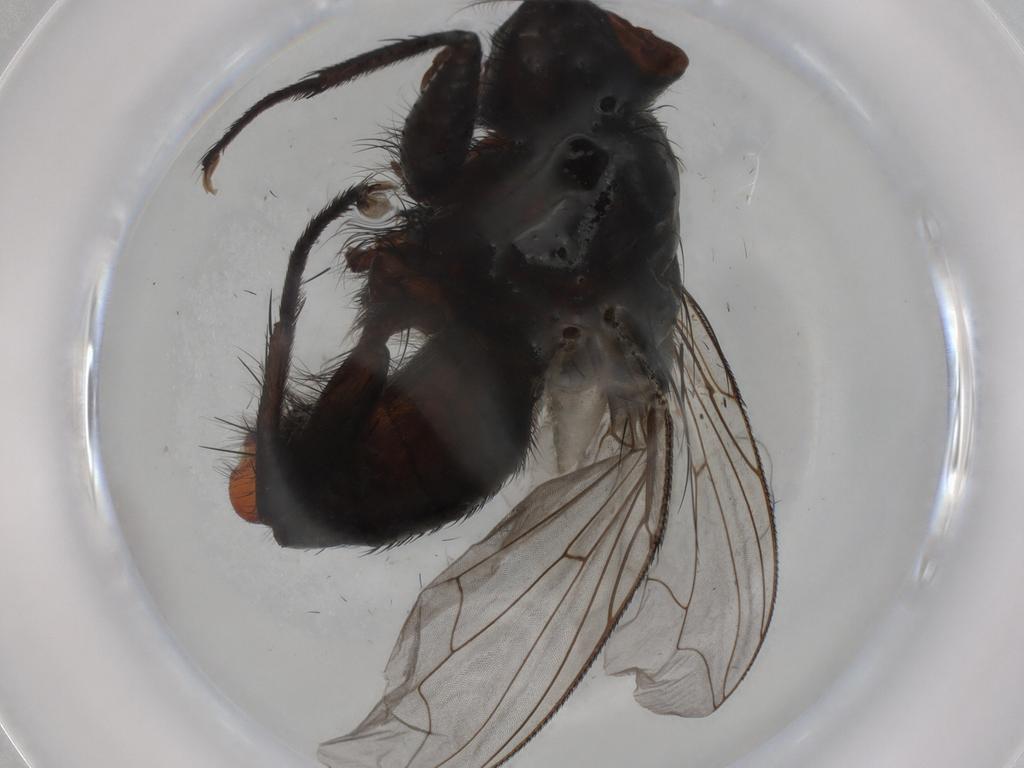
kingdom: Animalia
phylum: Arthropoda
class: Insecta
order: Diptera
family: Sarcophagidae
